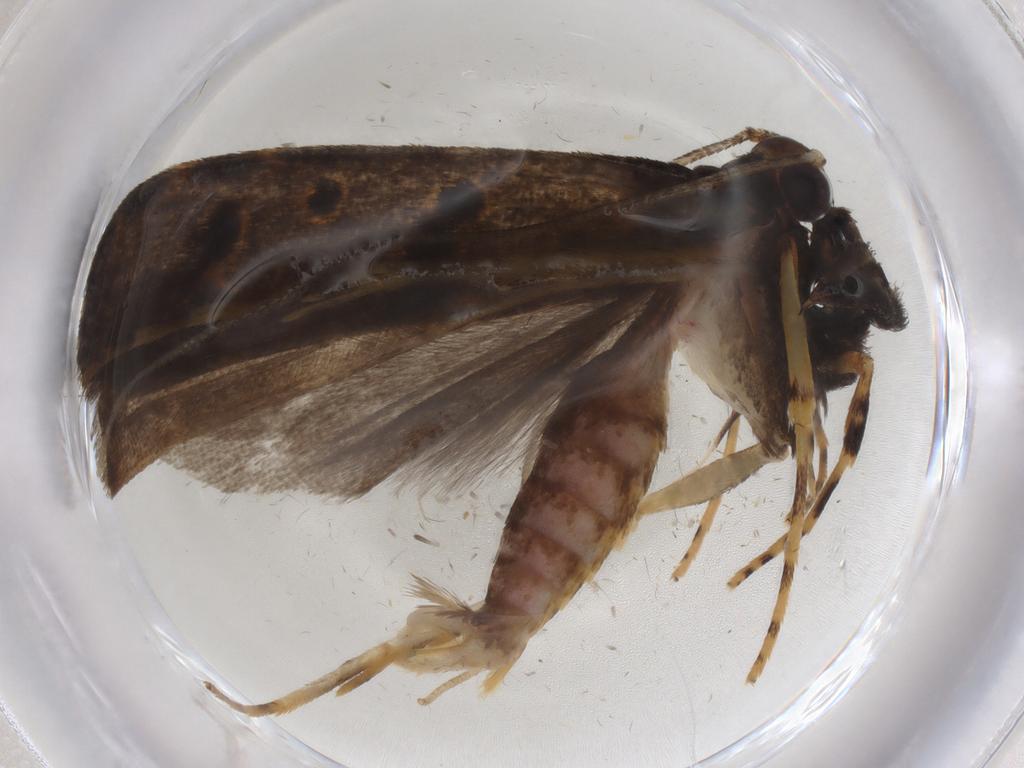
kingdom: Animalia
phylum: Arthropoda
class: Insecta
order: Lepidoptera
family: Cosmopterigidae
